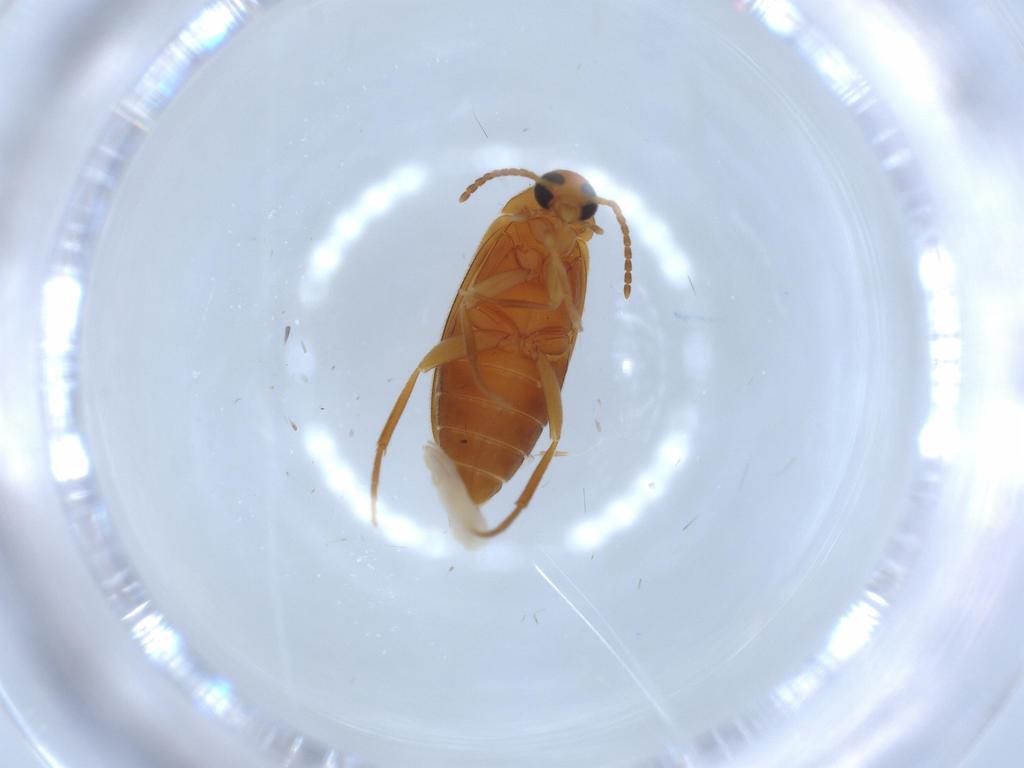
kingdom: Animalia
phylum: Arthropoda
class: Insecta
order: Coleoptera
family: Scraptiidae
